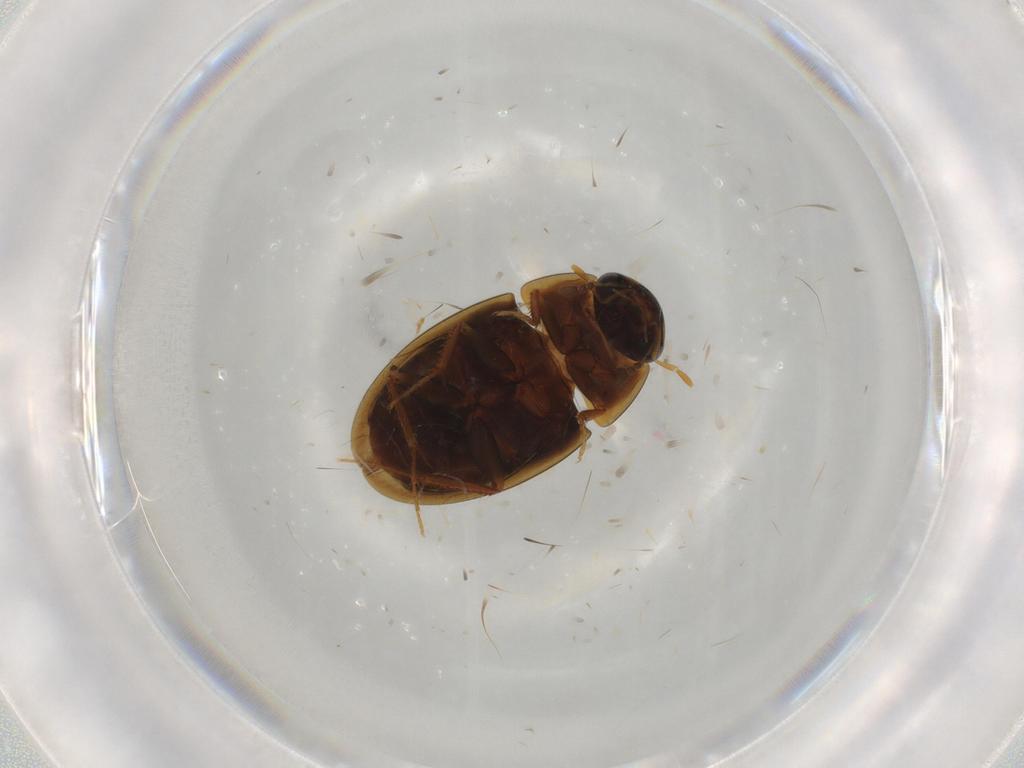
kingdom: Animalia
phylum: Arthropoda
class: Insecta
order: Coleoptera
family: Hydrophilidae
